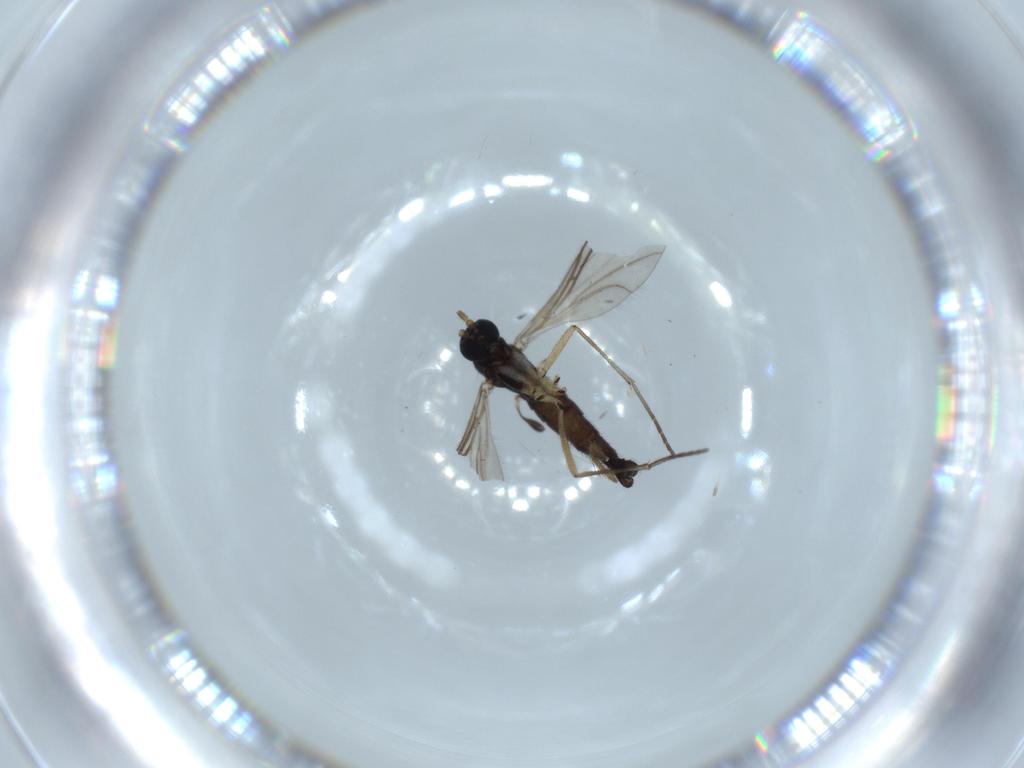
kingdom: Animalia
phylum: Arthropoda
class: Insecta
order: Diptera
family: Sciaridae
